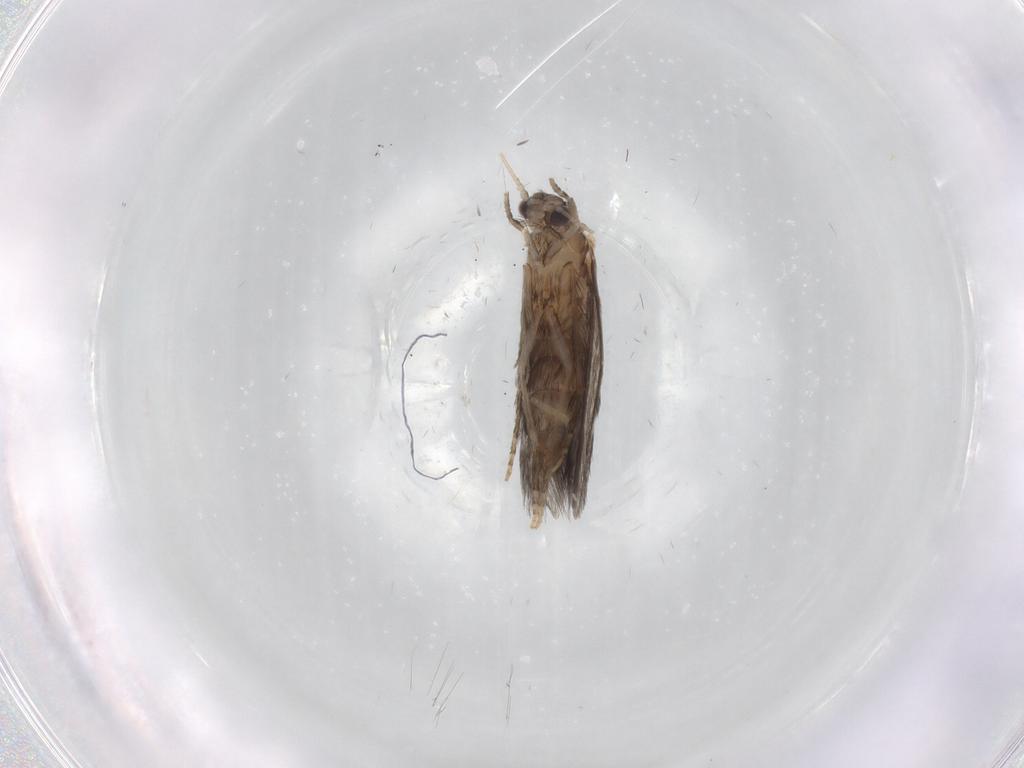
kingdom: Animalia
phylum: Arthropoda
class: Insecta
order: Trichoptera
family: Hydroptilidae
